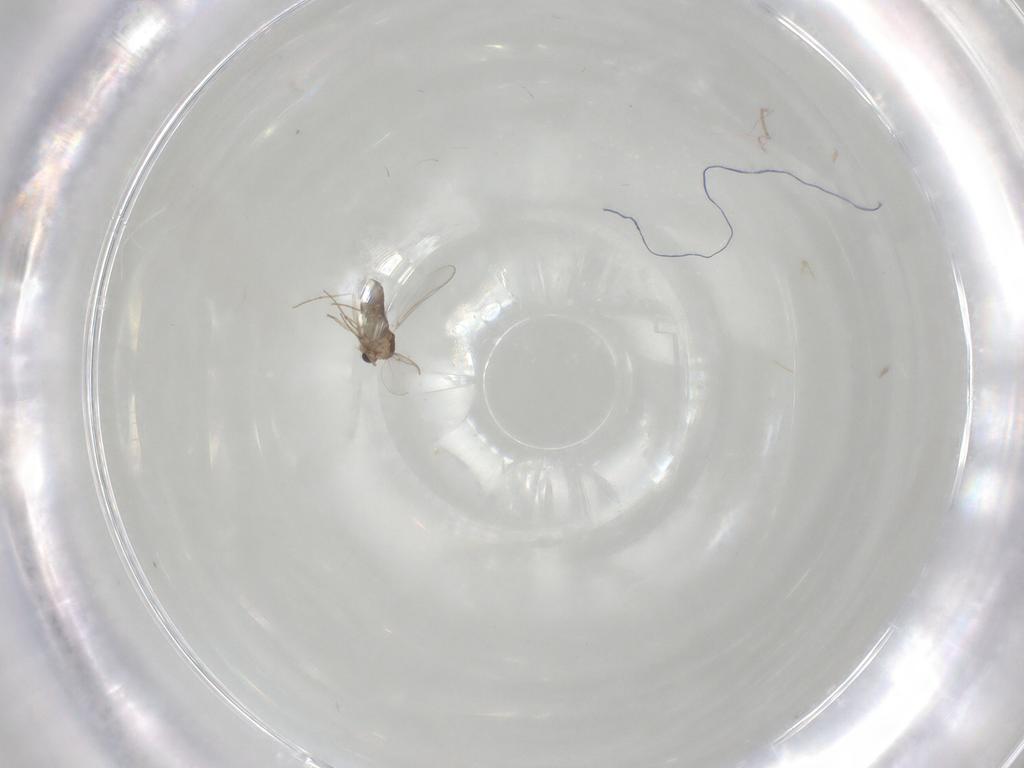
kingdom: Animalia
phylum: Arthropoda
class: Insecta
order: Diptera
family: Chironomidae
